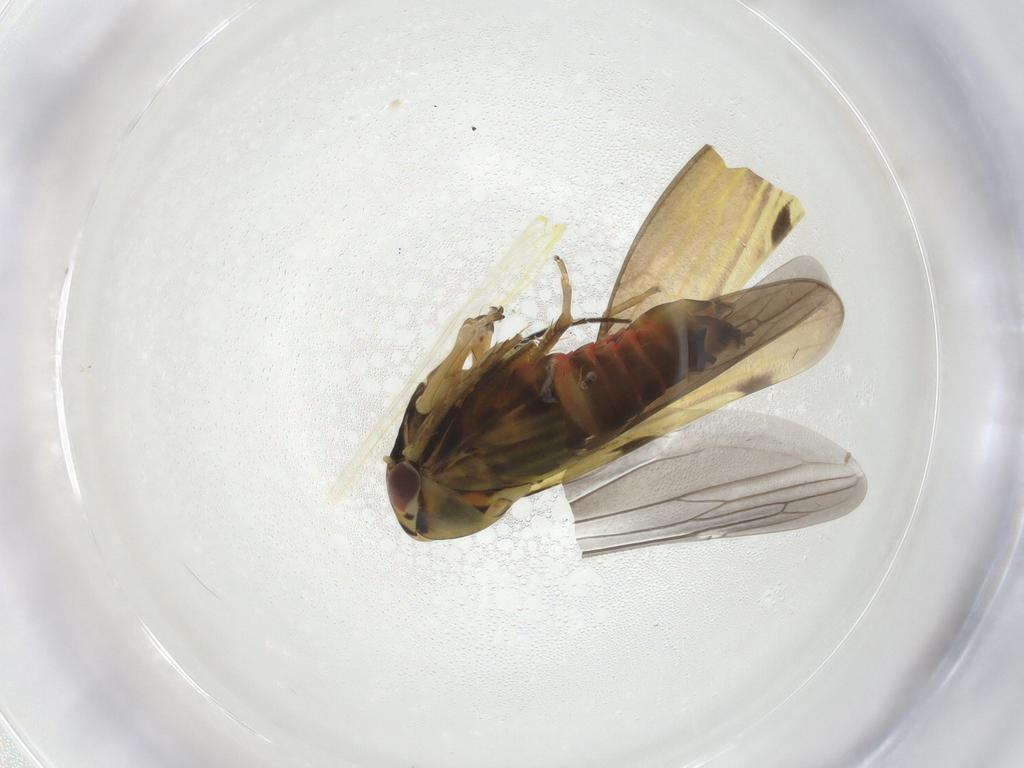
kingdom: Animalia
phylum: Arthropoda
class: Insecta
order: Hemiptera
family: Cicadellidae
